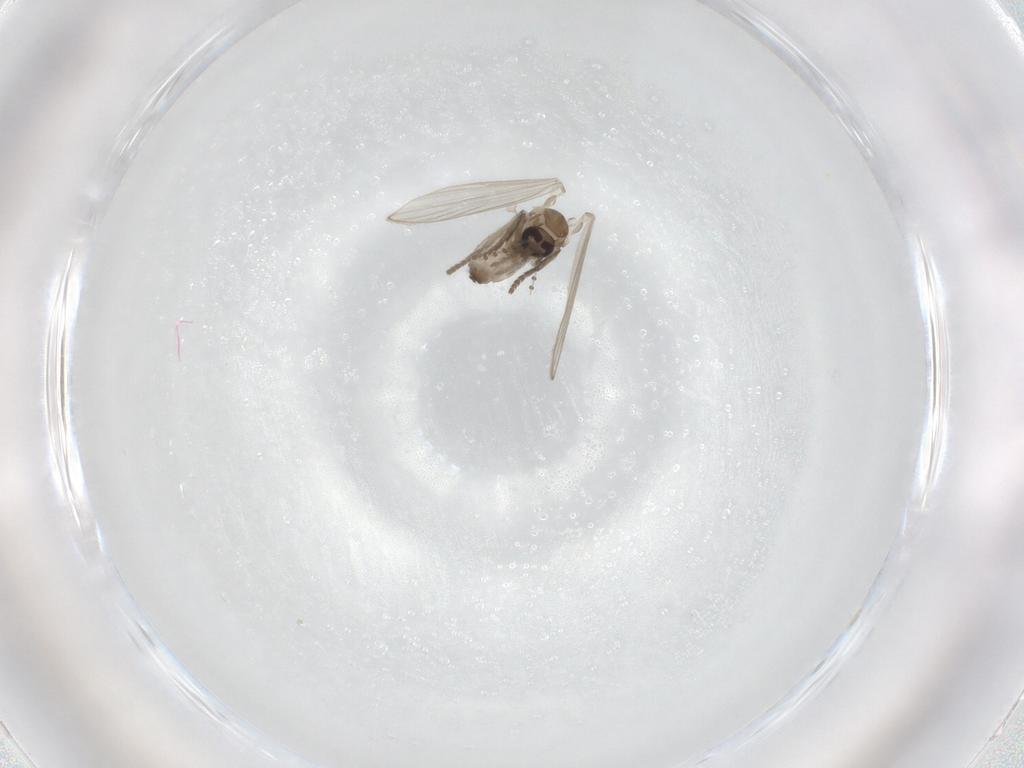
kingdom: Animalia
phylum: Arthropoda
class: Insecta
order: Diptera
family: Psychodidae
